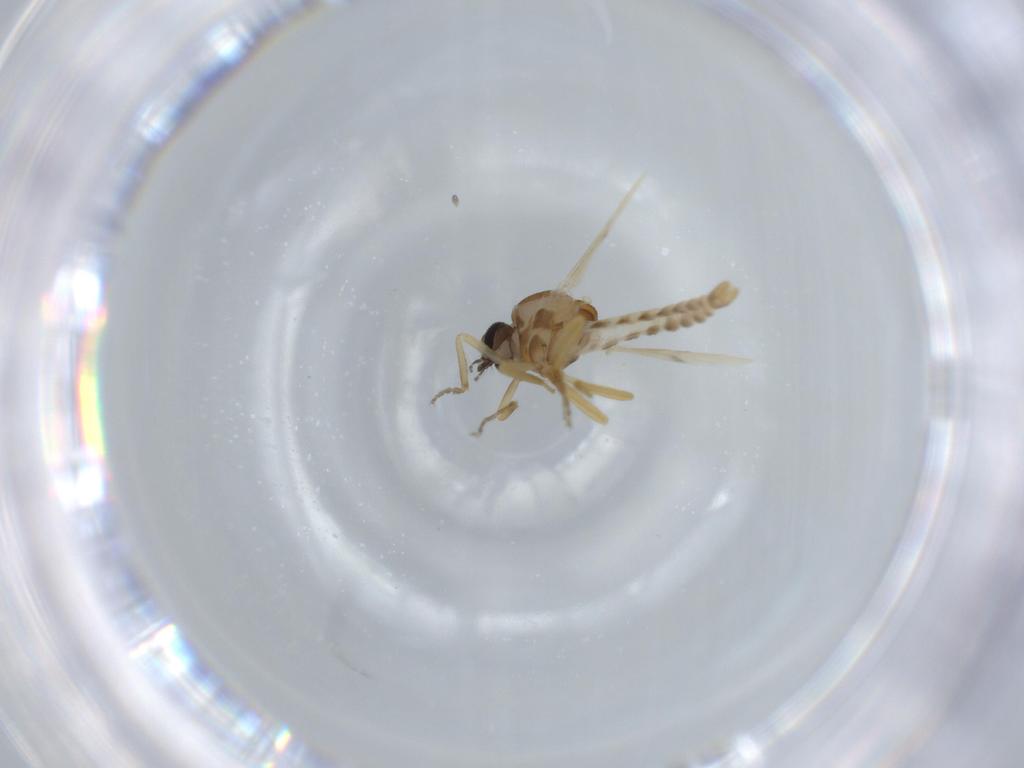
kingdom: Animalia
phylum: Arthropoda
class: Insecta
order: Diptera
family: Ceratopogonidae
